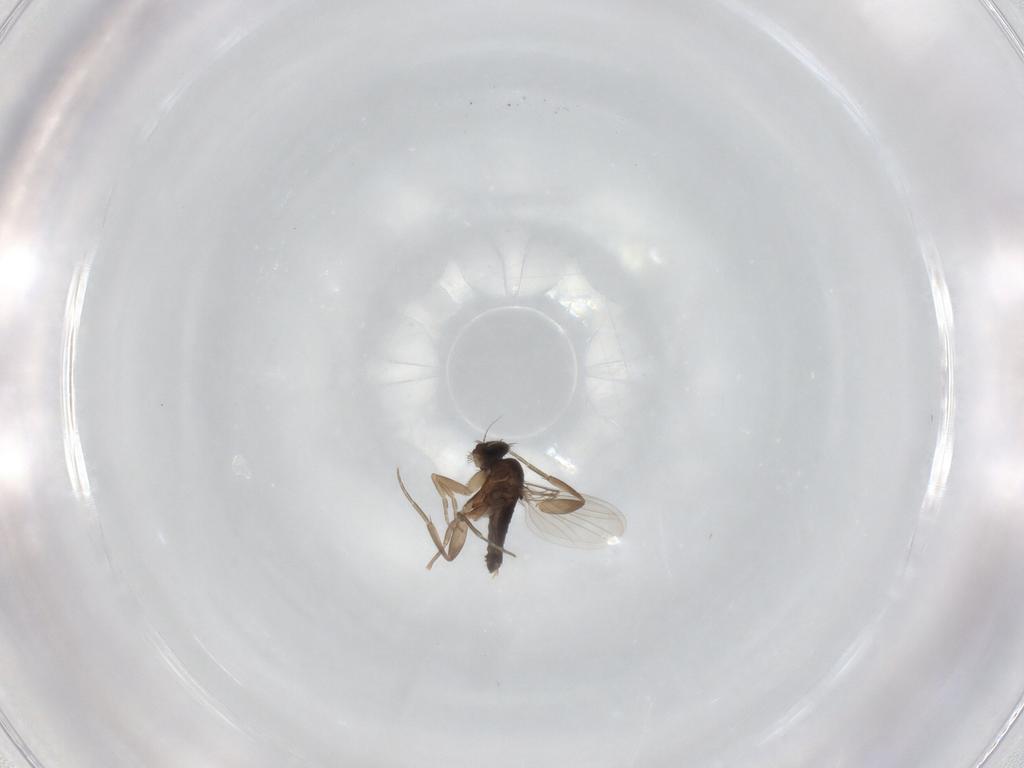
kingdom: Animalia
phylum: Arthropoda
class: Insecta
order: Diptera
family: Phoridae
